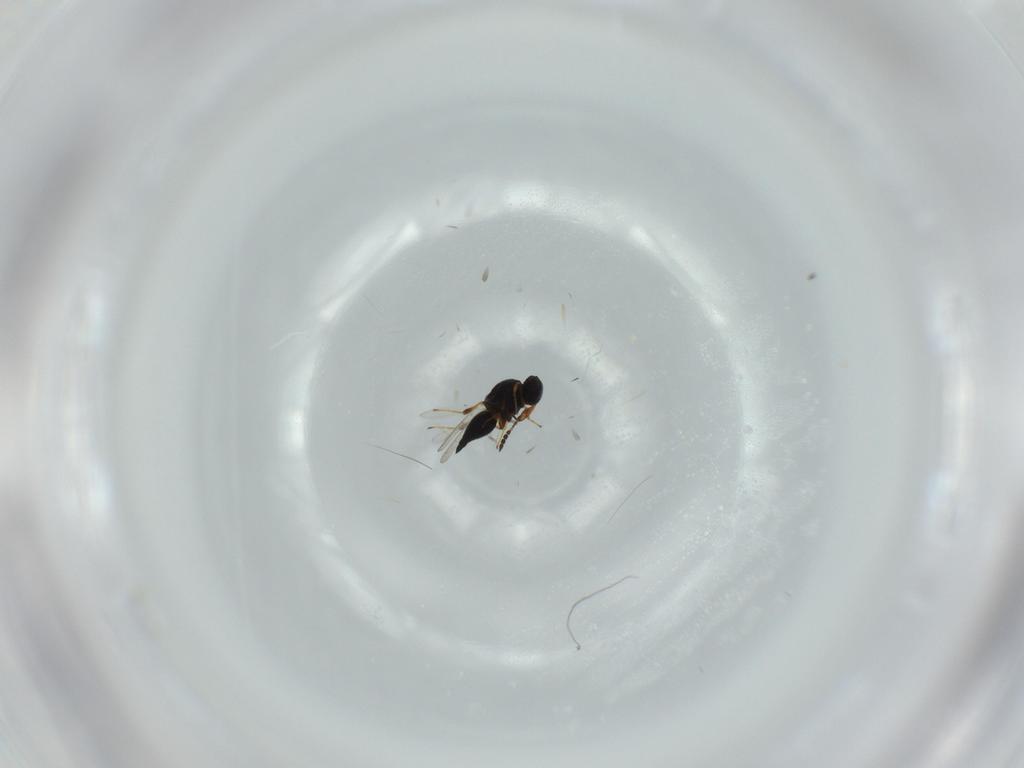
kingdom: Animalia
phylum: Arthropoda
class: Insecta
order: Hymenoptera
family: Platygastridae
